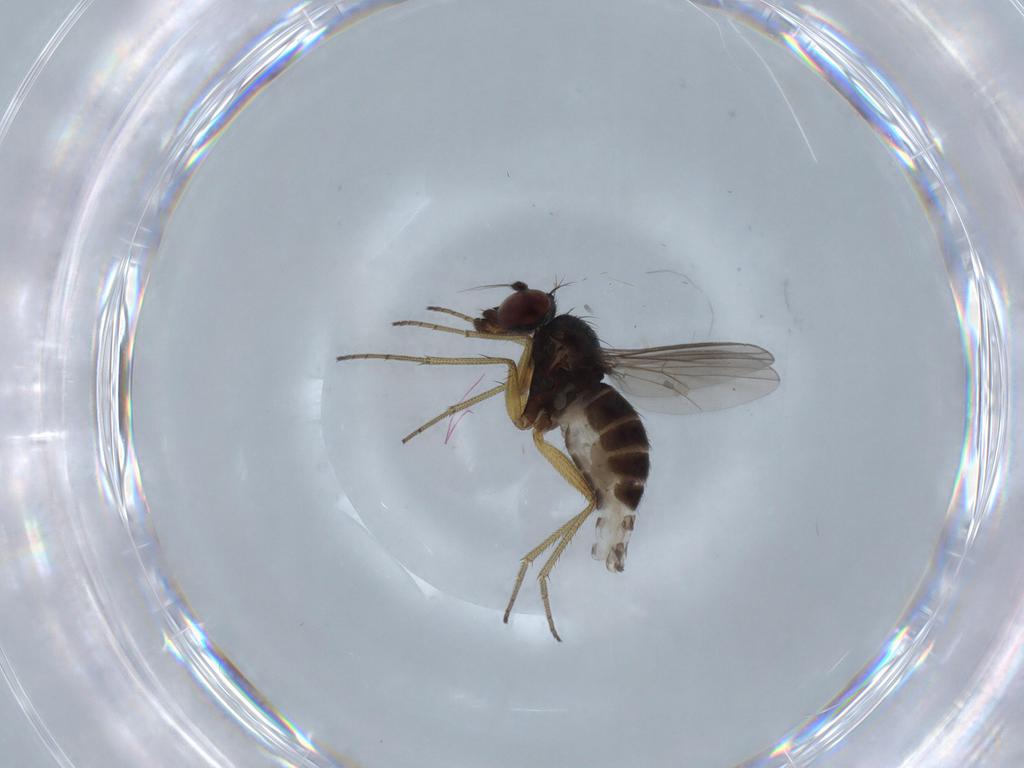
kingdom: Animalia
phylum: Arthropoda
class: Insecta
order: Diptera
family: Dolichopodidae
